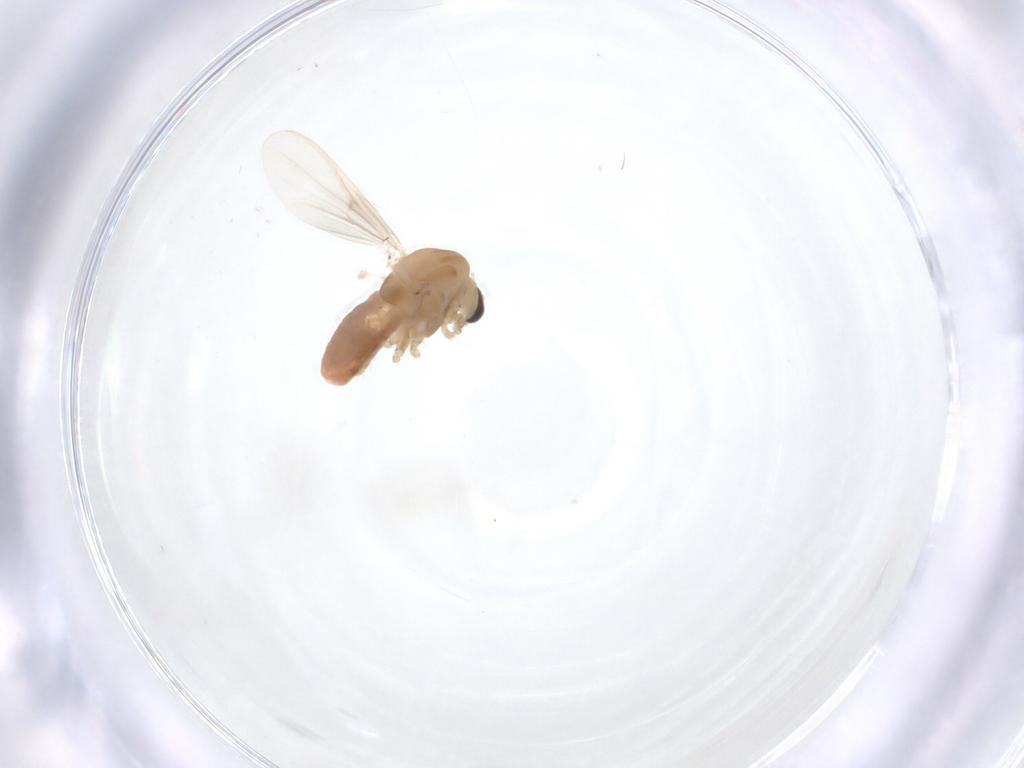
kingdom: Animalia
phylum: Arthropoda
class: Insecta
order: Diptera
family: Chironomidae
